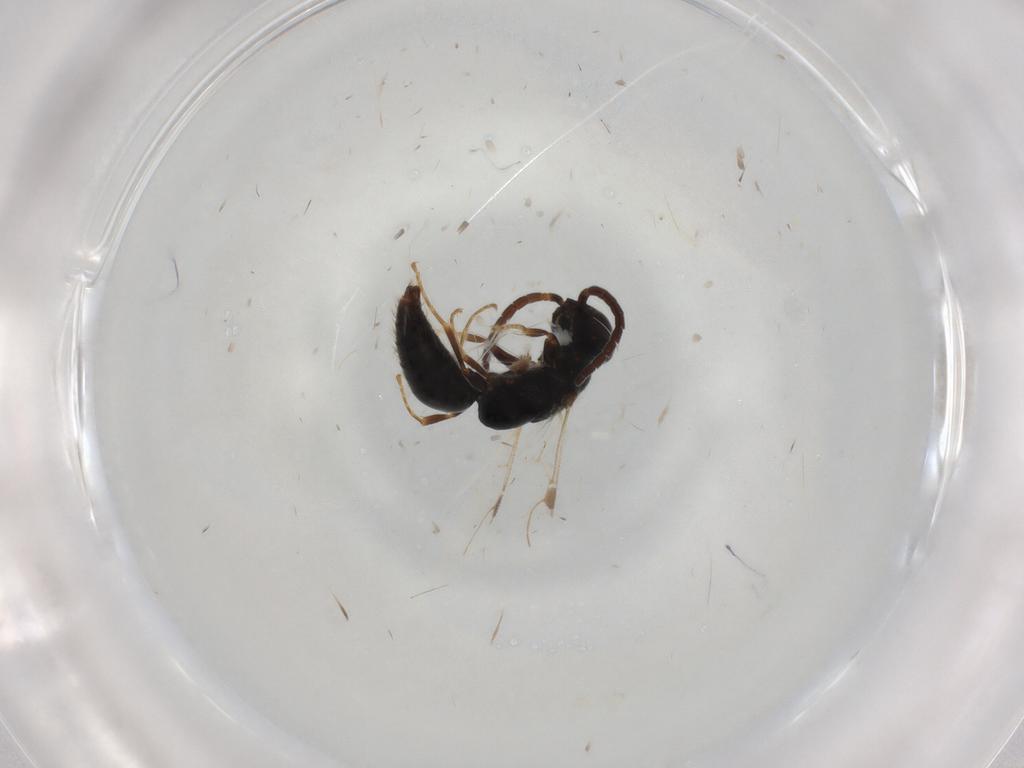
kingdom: Animalia
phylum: Arthropoda
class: Insecta
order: Hymenoptera
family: Bethylidae
